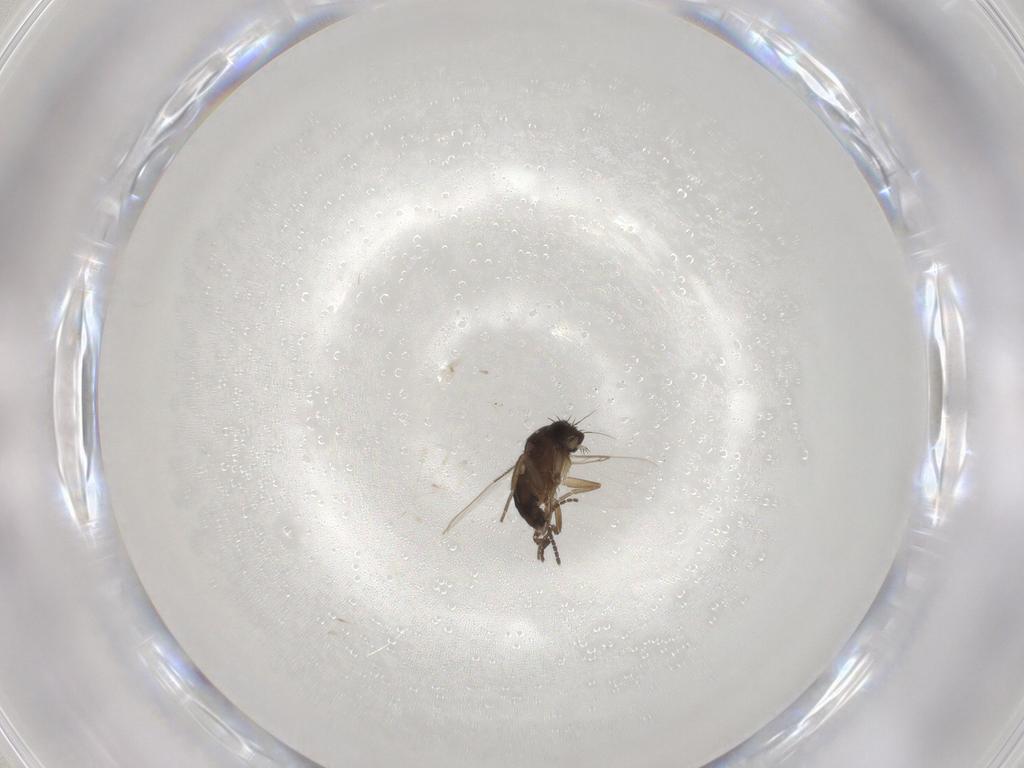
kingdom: Animalia
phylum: Arthropoda
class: Insecta
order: Diptera
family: Phoridae
